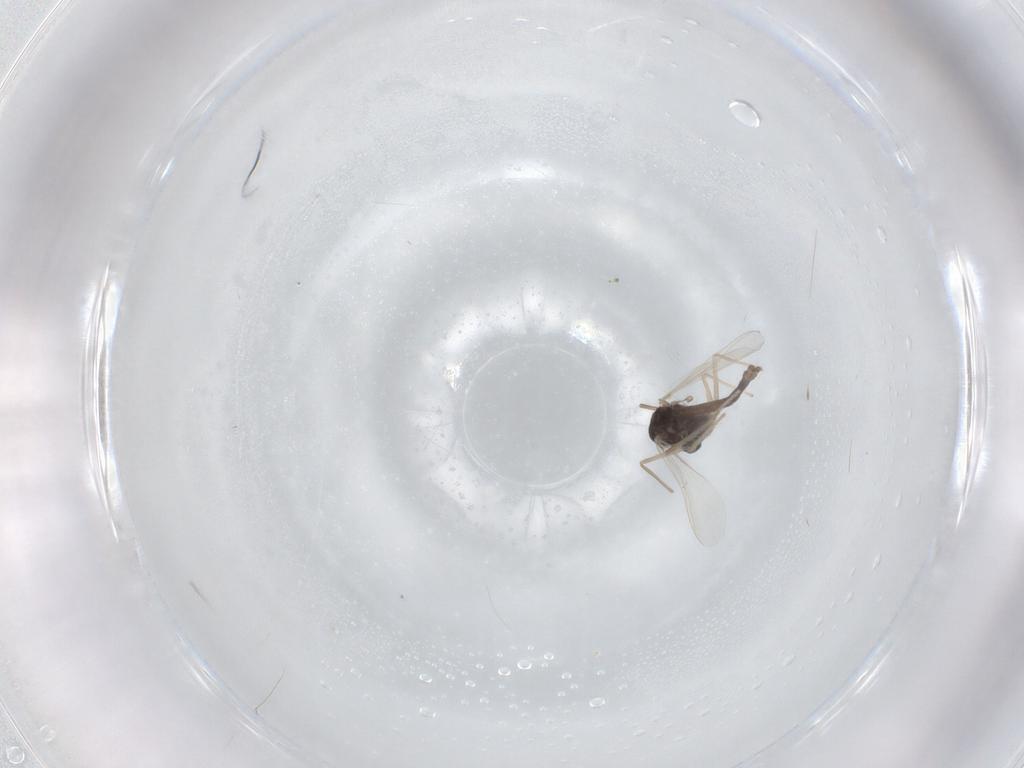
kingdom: Animalia
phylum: Arthropoda
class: Insecta
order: Diptera
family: Chironomidae
